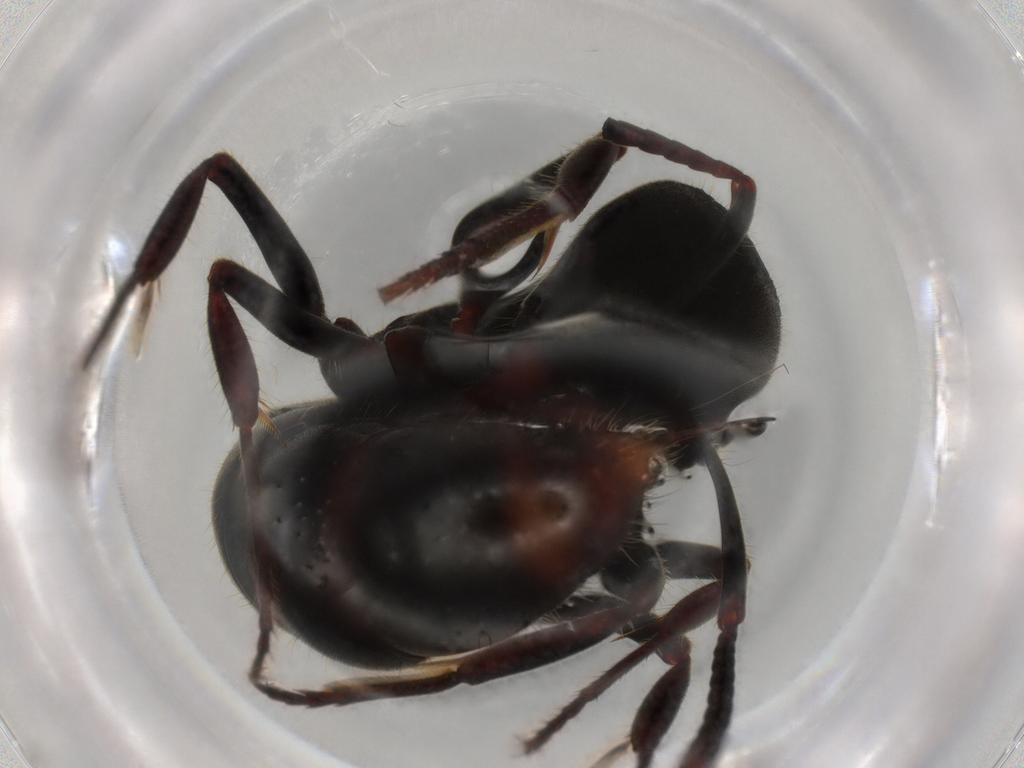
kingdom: Animalia
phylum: Arthropoda
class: Insecta
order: Hymenoptera
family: Formicidae
